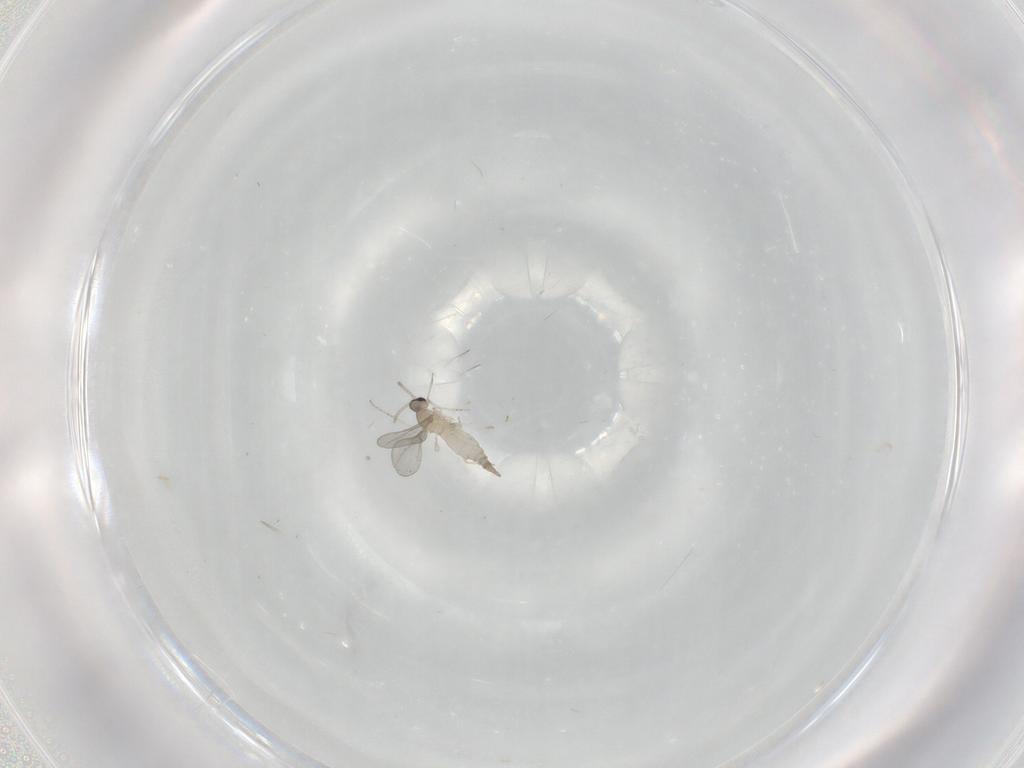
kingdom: Animalia
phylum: Arthropoda
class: Insecta
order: Diptera
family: Cecidomyiidae
